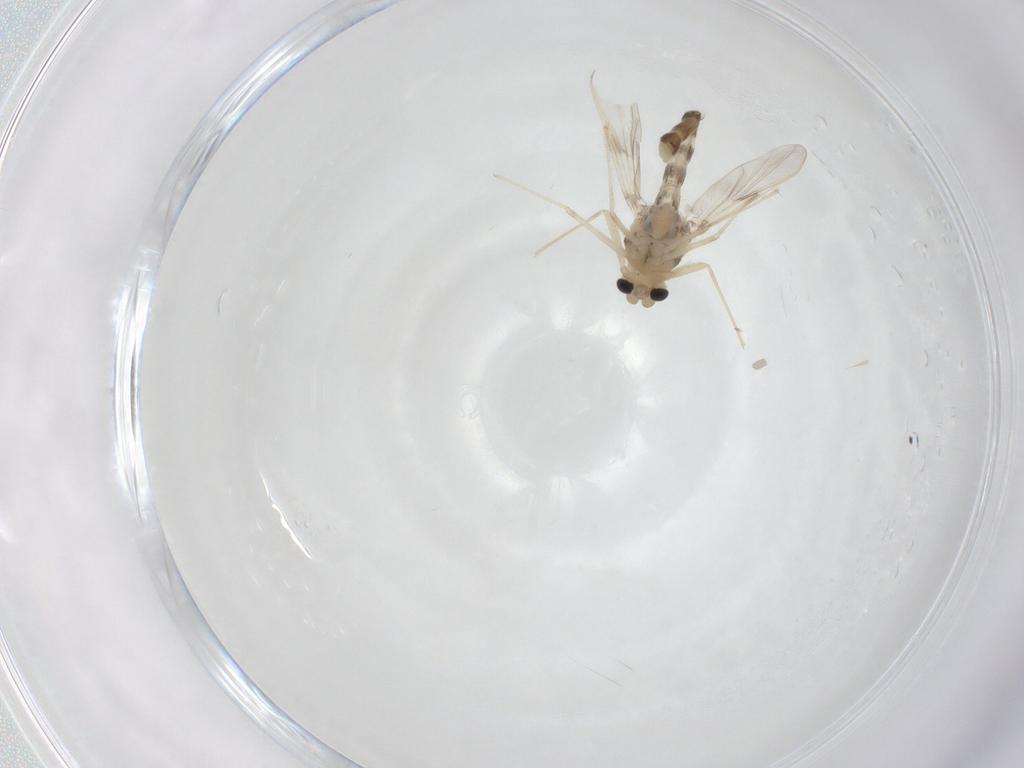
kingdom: Animalia
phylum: Arthropoda
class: Insecta
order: Diptera
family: Chironomidae
